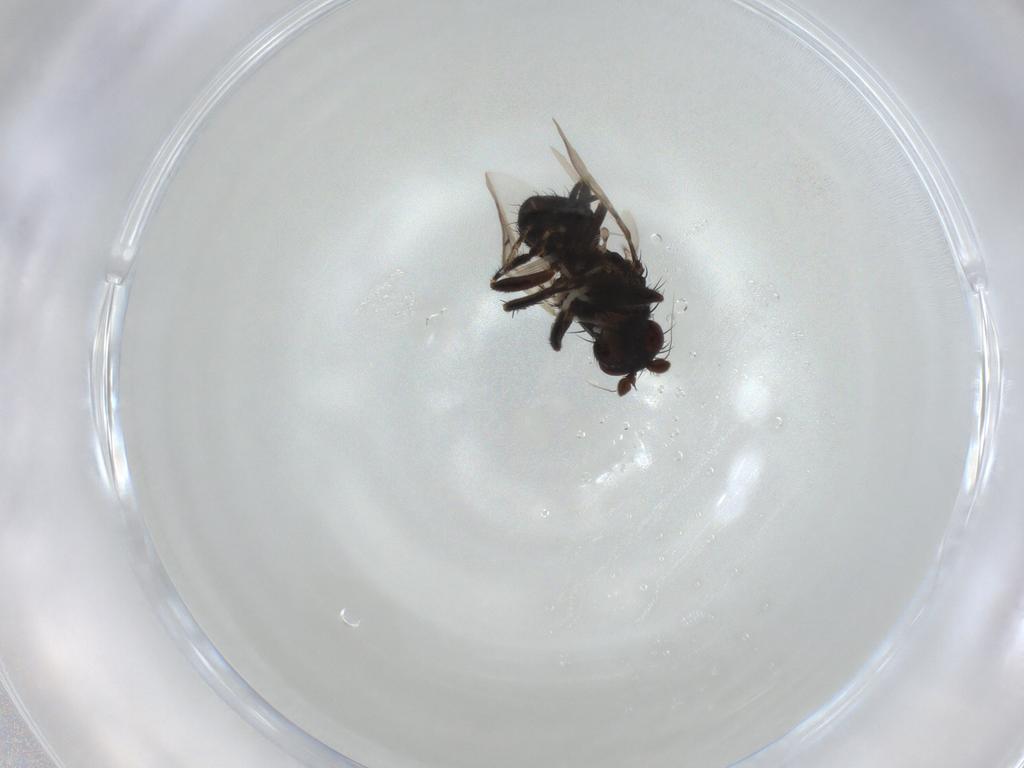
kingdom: Animalia
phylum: Arthropoda
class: Insecta
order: Diptera
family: Sphaeroceridae
